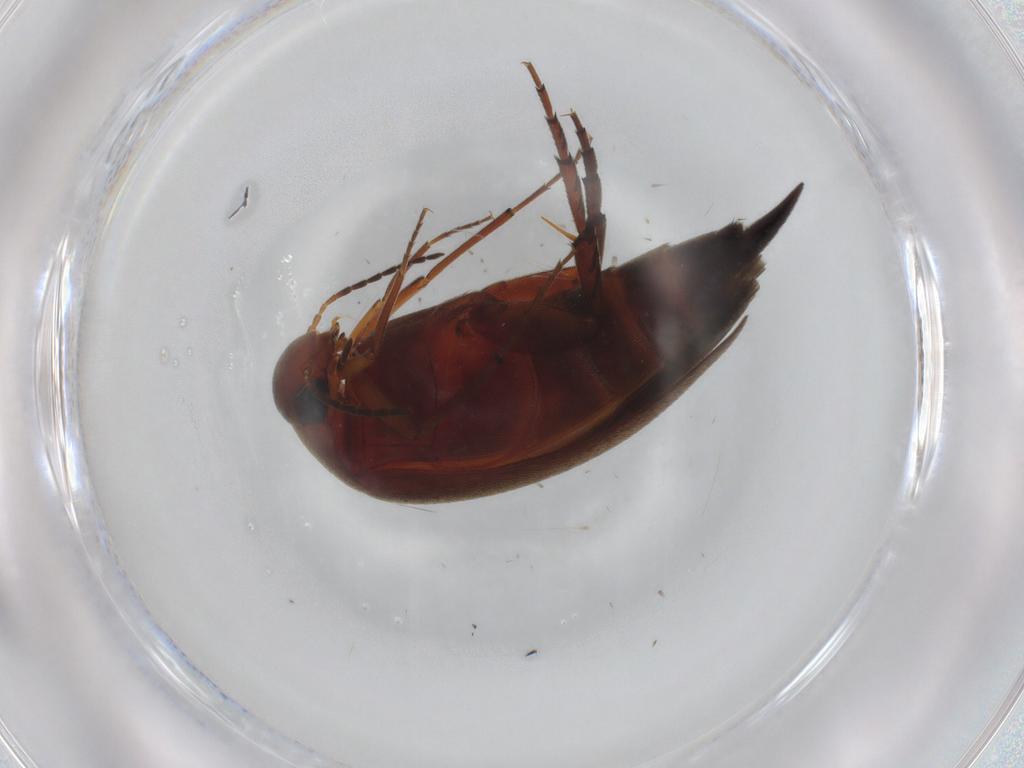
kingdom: Animalia
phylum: Arthropoda
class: Insecta
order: Coleoptera
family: Mordellidae
